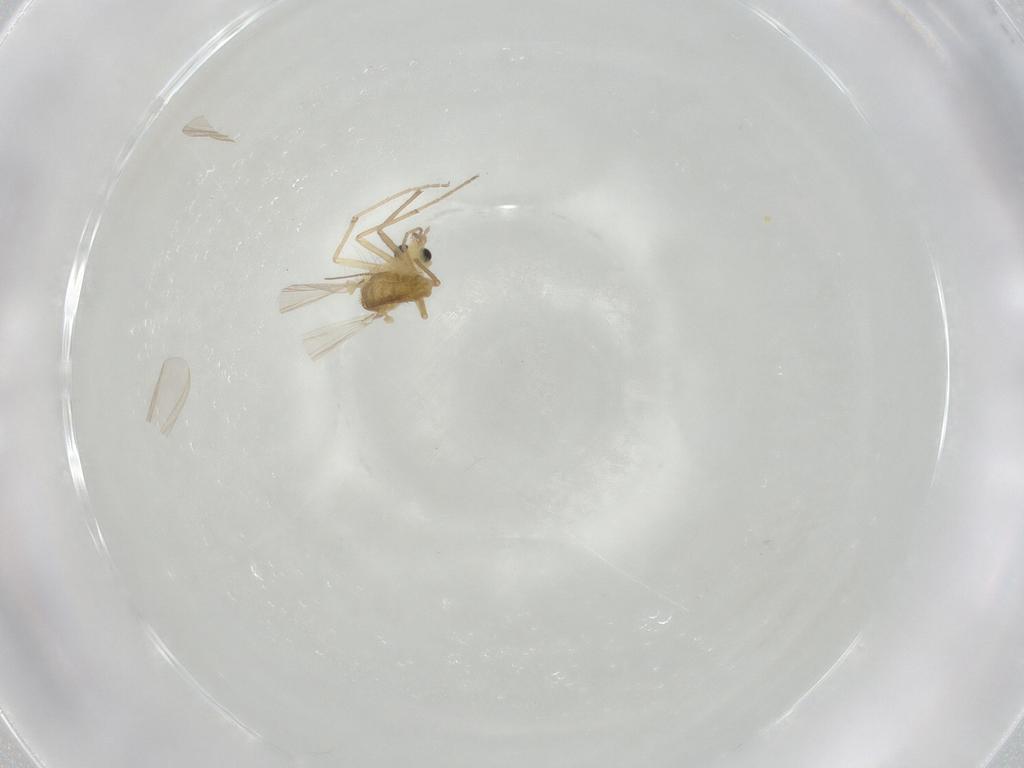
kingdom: Animalia
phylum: Arthropoda
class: Insecta
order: Diptera
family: Chironomidae
